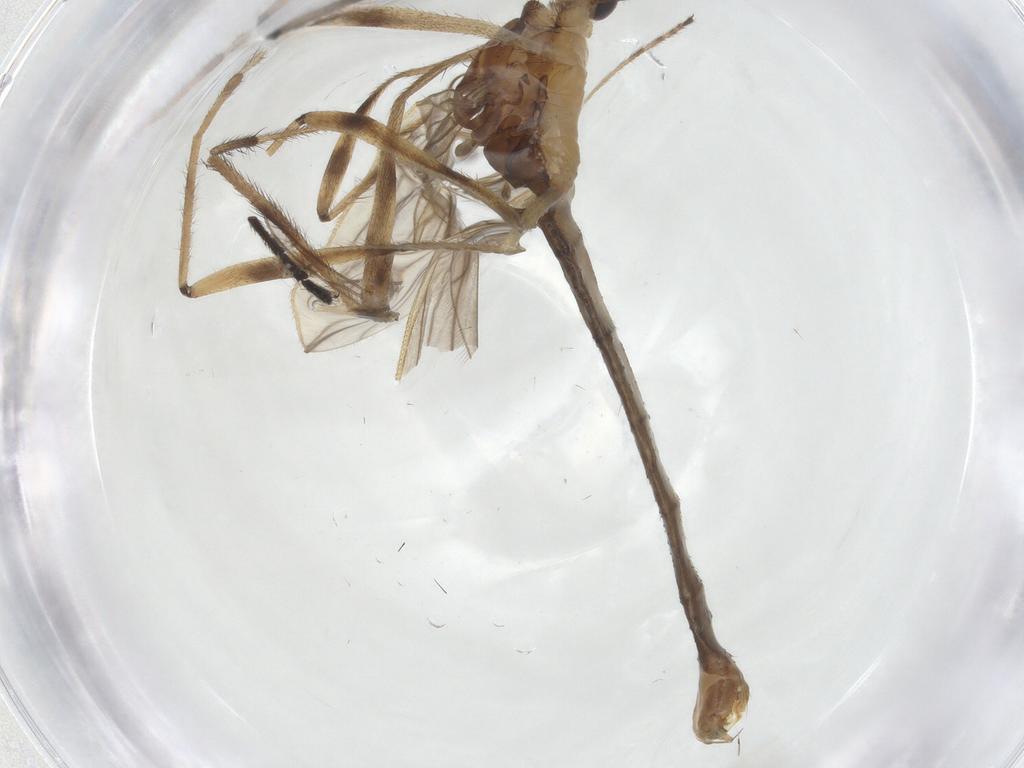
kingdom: Animalia
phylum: Arthropoda
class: Insecta
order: Diptera
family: Limoniidae
